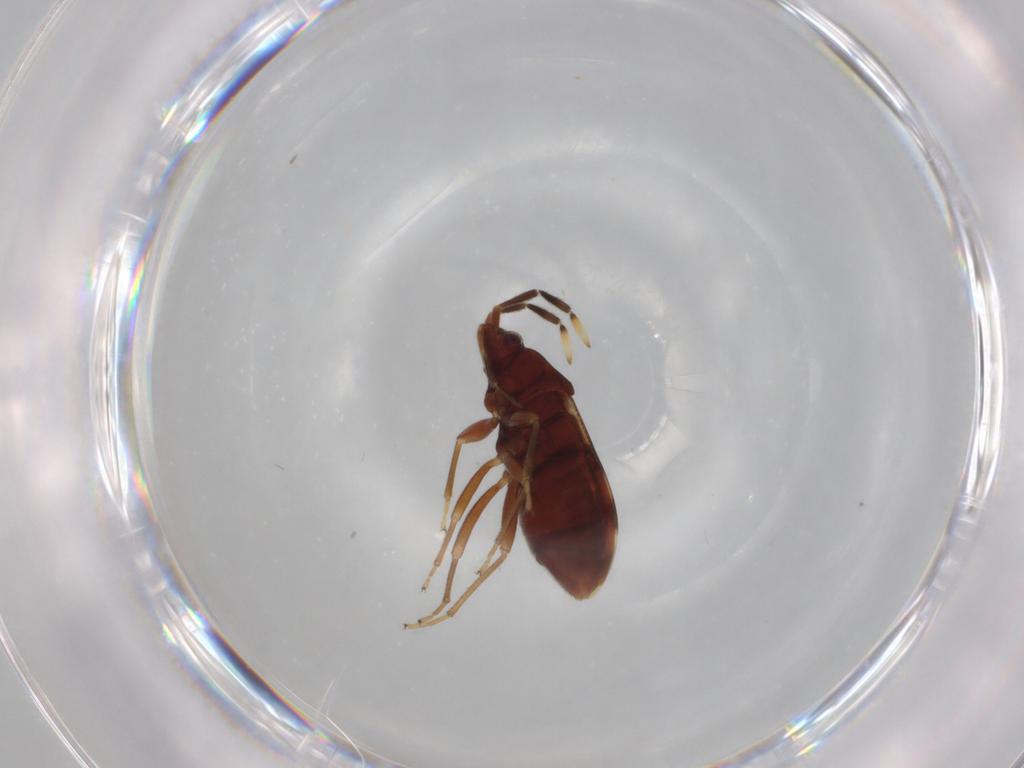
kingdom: Animalia
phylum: Arthropoda
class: Insecta
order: Hemiptera
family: Rhyparochromidae
